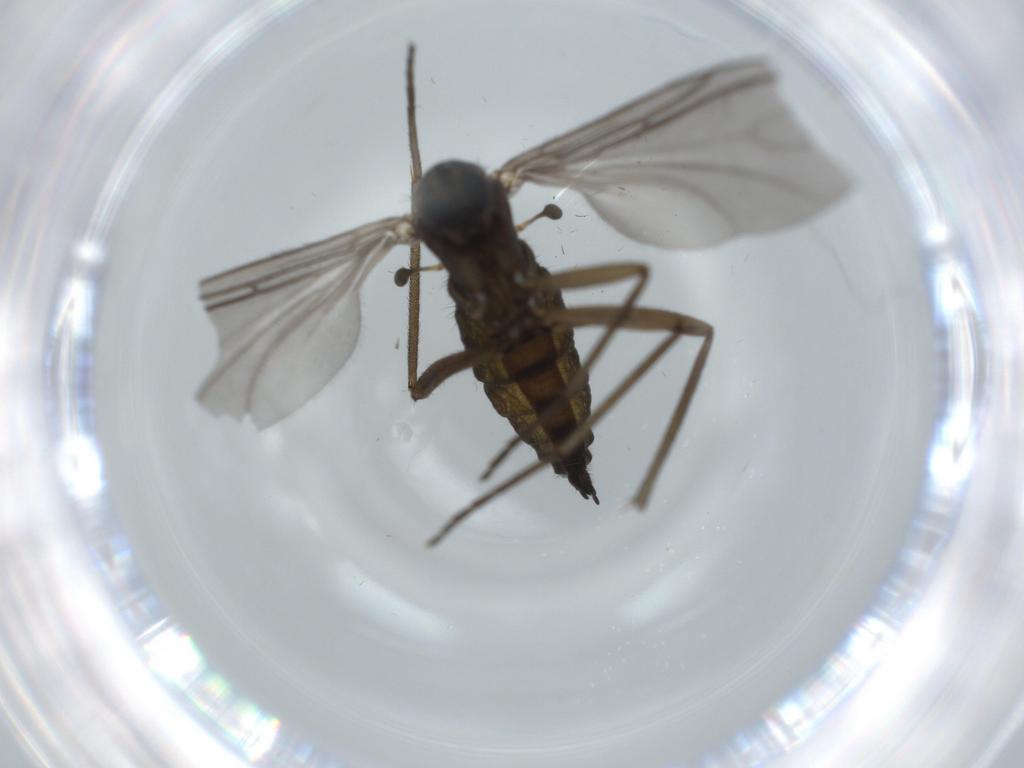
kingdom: Animalia
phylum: Arthropoda
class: Insecta
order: Diptera
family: Sciaridae
